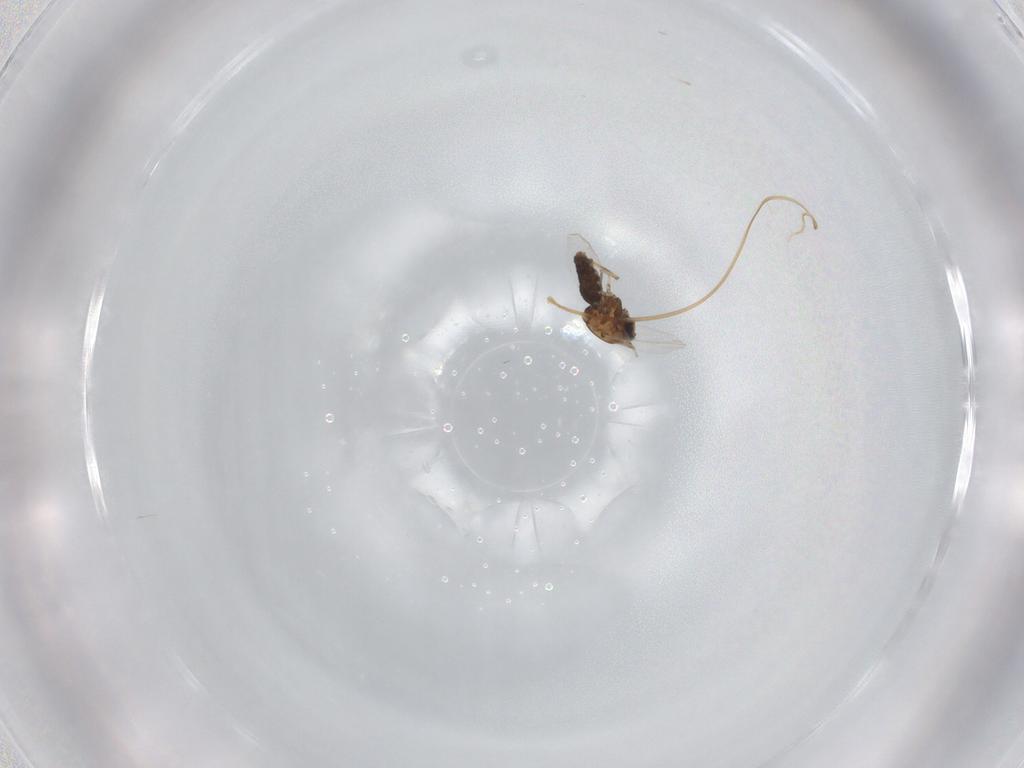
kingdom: Animalia
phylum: Arthropoda
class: Insecta
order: Diptera
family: Ceratopogonidae
